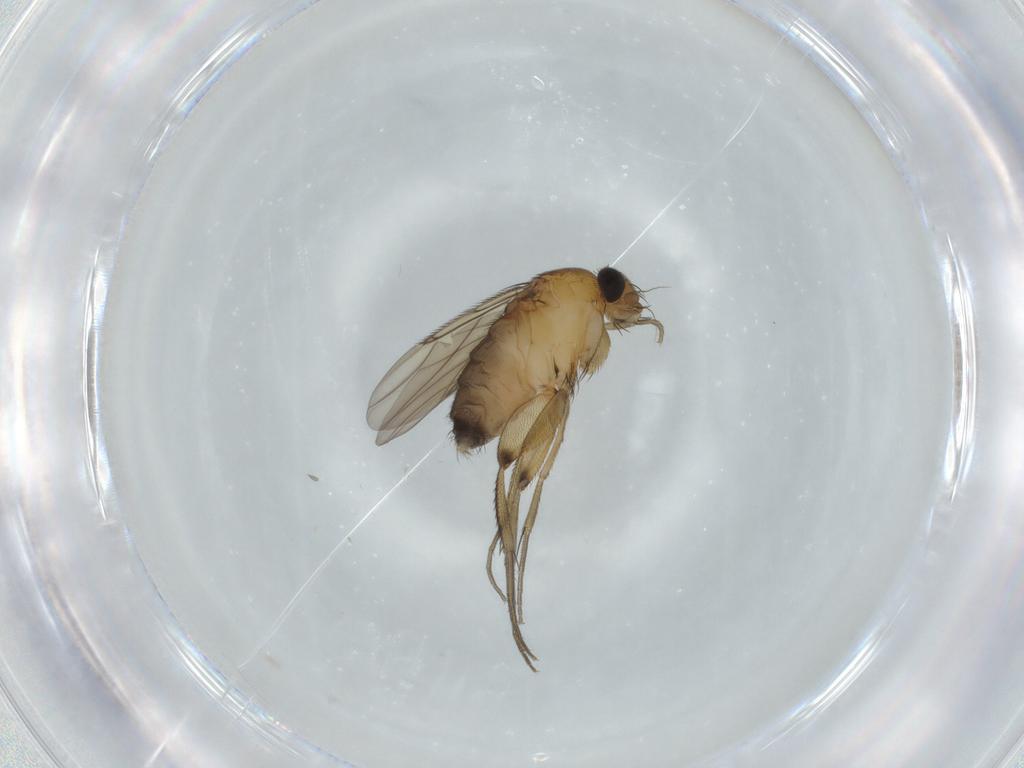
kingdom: Animalia
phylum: Arthropoda
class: Insecta
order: Diptera
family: Phoridae
